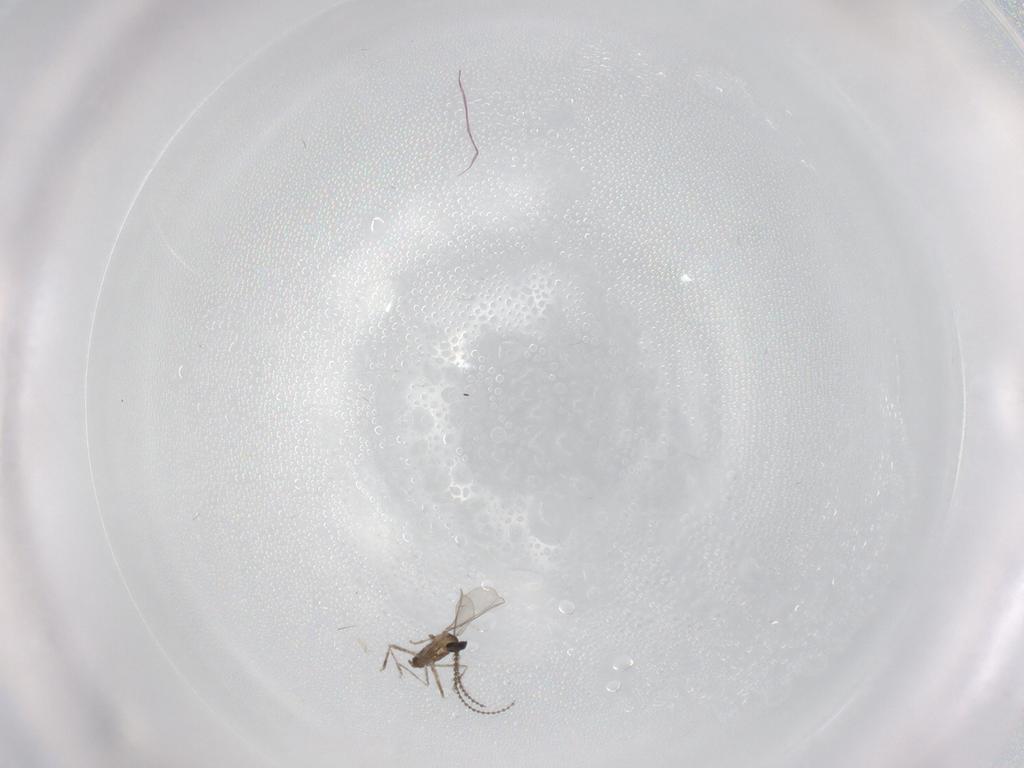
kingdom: Animalia
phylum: Arthropoda
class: Insecta
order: Diptera
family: Cecidomyiidae
